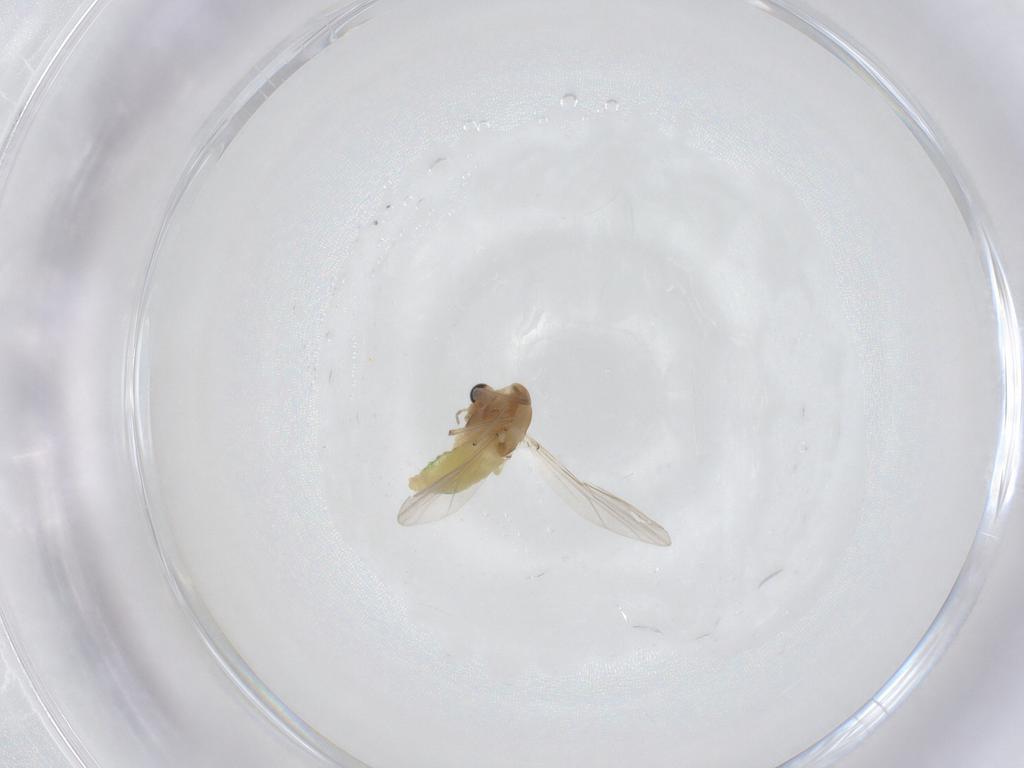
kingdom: Animalia
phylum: Arthropoda
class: Insecta
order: Diptera
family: Chironomidae
